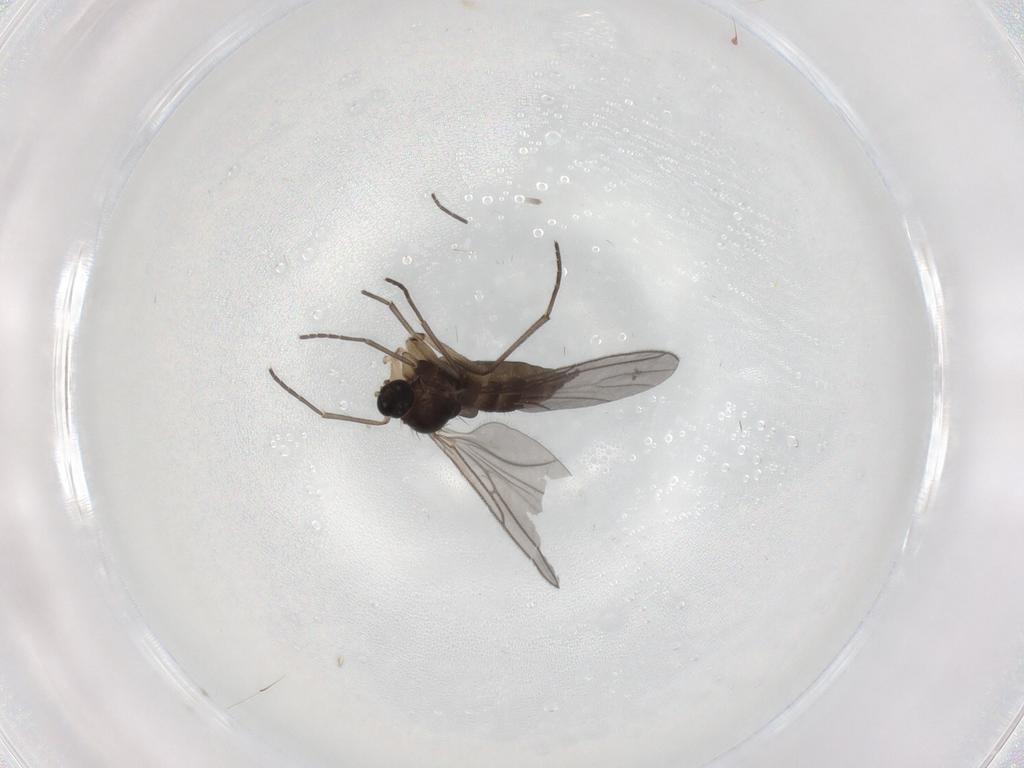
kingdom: Animalia
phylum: Arthropoda
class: Insecta
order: Diptera
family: Sciaridae
